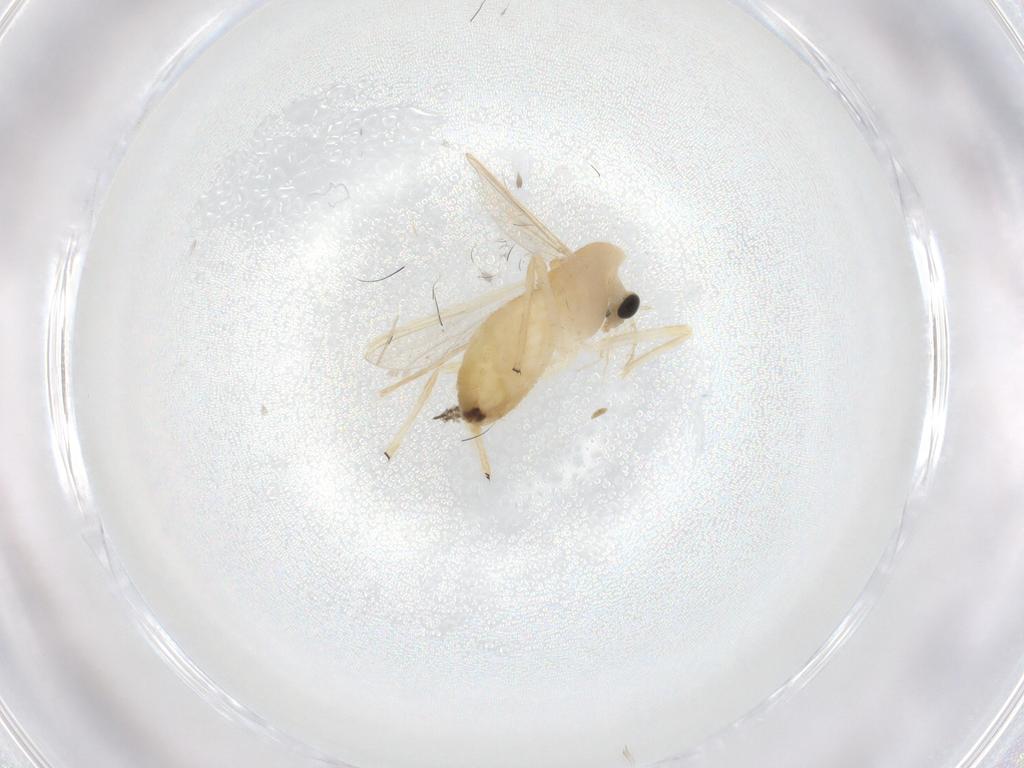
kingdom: Animalia
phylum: Arthropoda
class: Insecta
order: Diptera
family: Chironomidae
